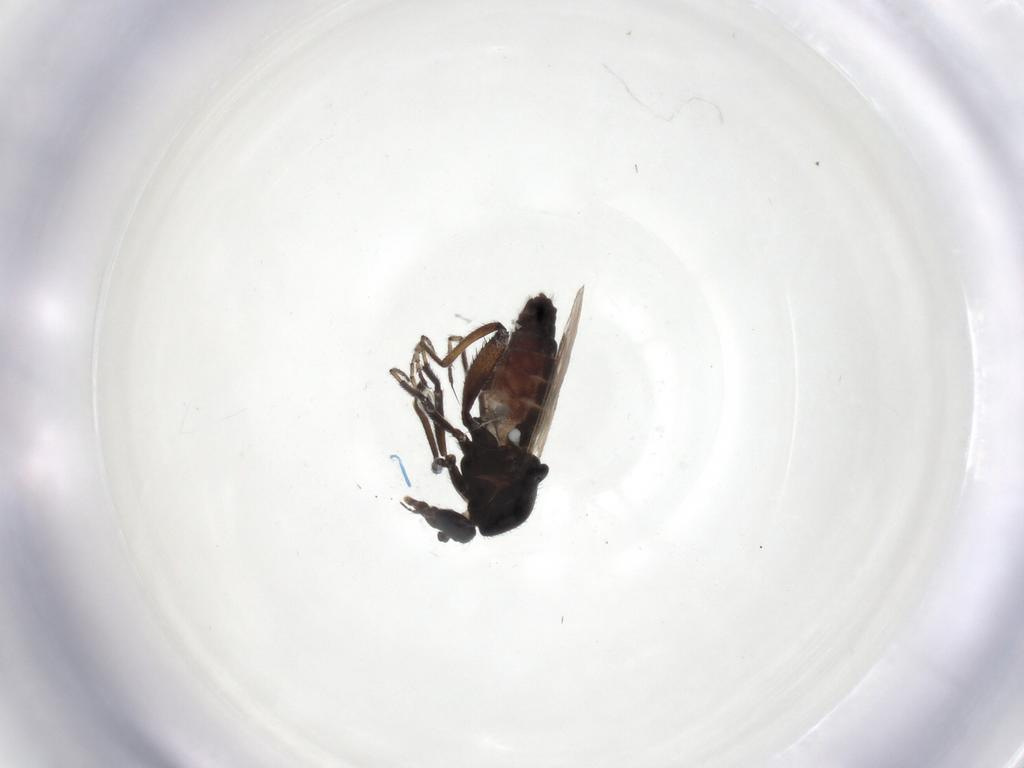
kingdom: Animalia
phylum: Arthropoda
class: Insecta
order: Diptera
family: Ceratopogonidae
